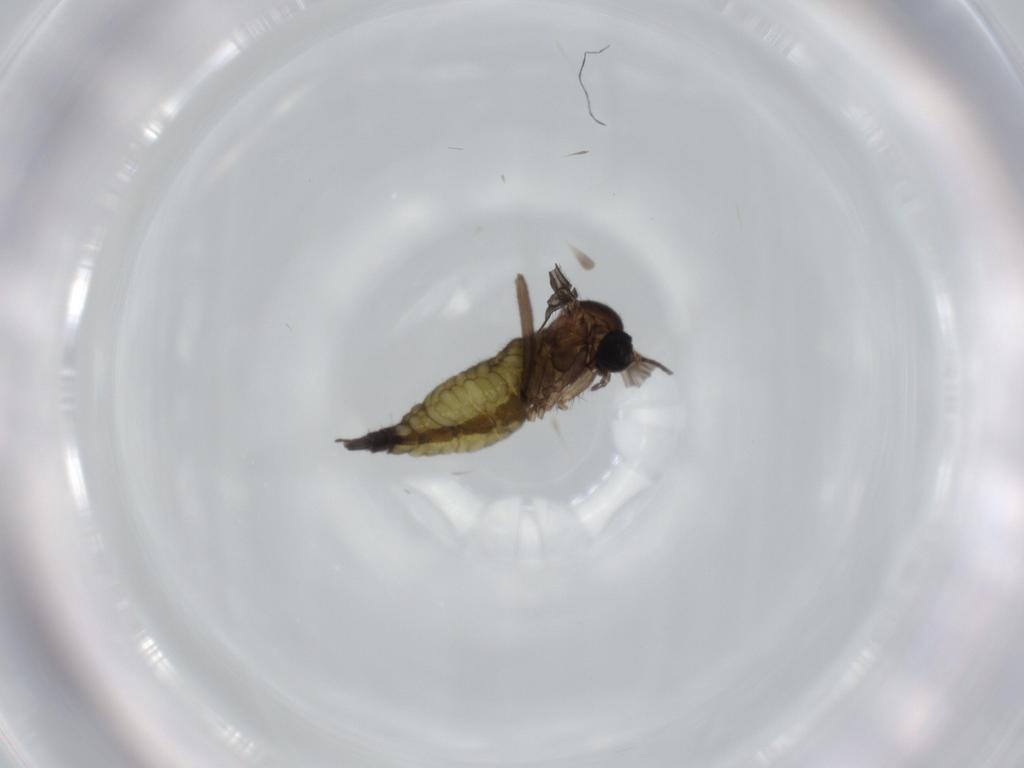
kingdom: Animalia
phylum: Arthropoda
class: Insecta
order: Diptera
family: Sciaridae
